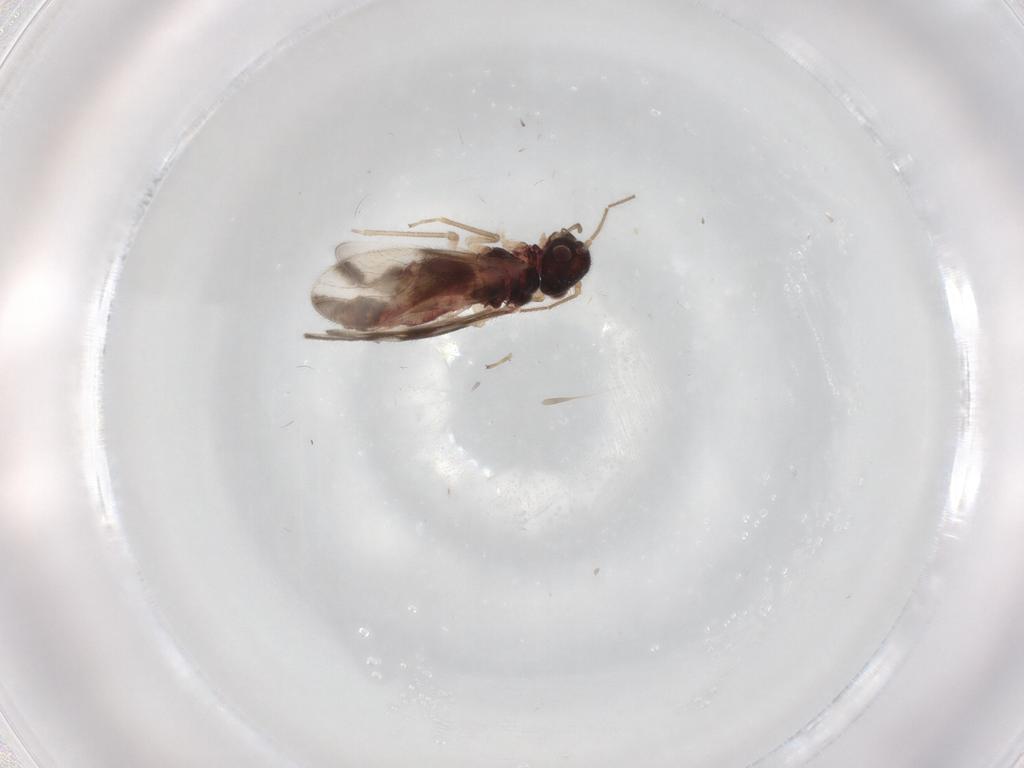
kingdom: Animalia
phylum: Arthropoda
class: Insecta
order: Psocodea
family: Caeciliusidae
